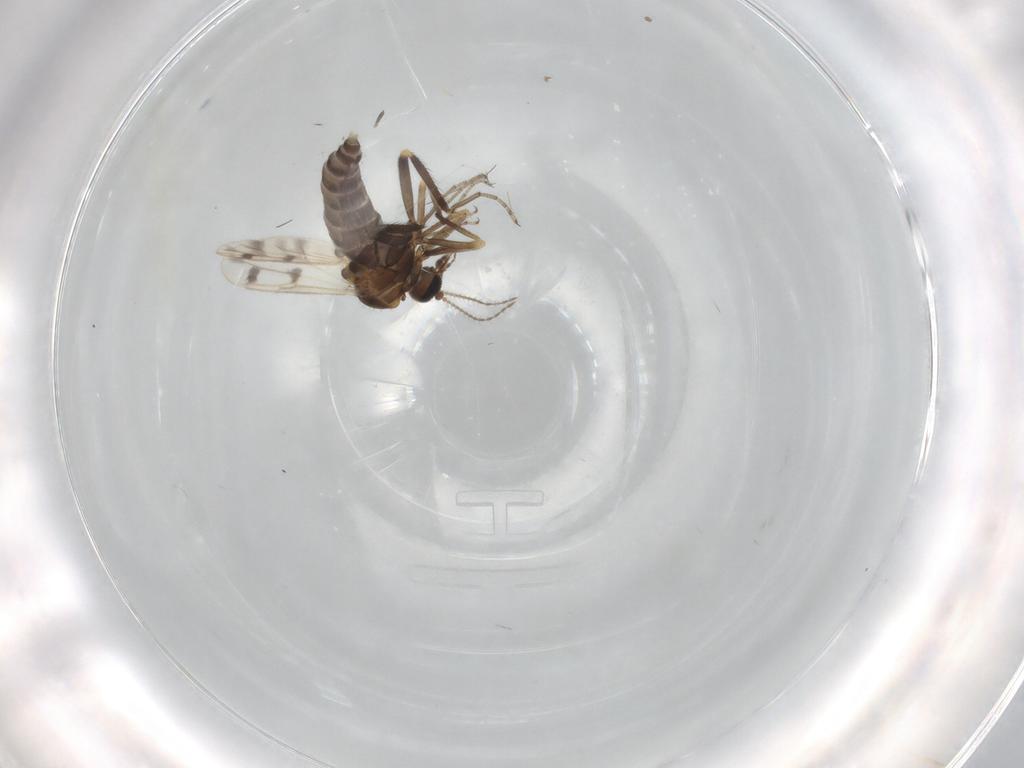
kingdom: Animalia
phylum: Arthropoda
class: Insecta
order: Diptera
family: Ceratopogonidae
